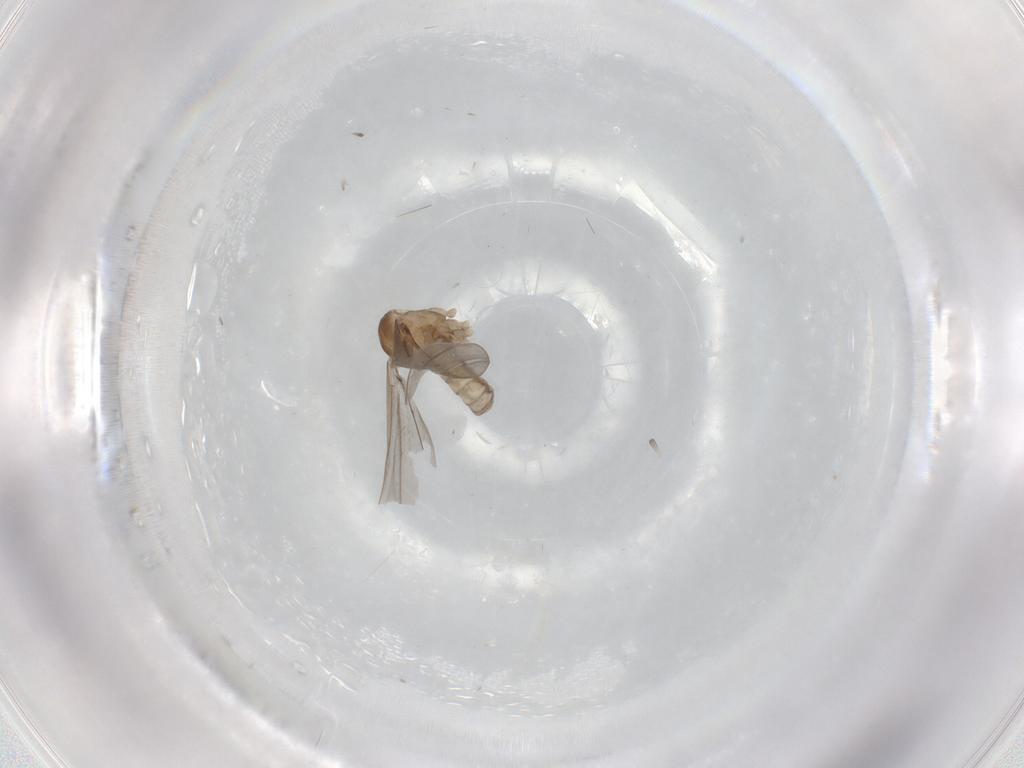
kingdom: Animalia
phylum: Arthropoda
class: Insecta
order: Diptera
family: Cecidomyiidae
